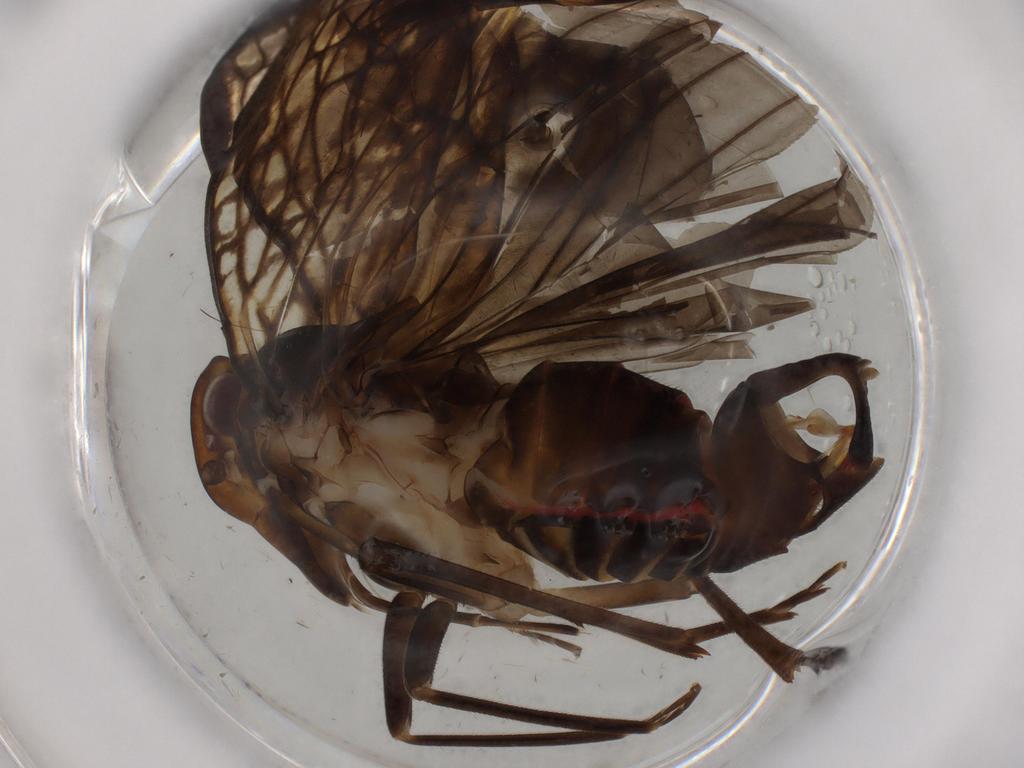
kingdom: Animalia
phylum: Arthropoda
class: Insecta
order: Hemiptera
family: Cixiidae
